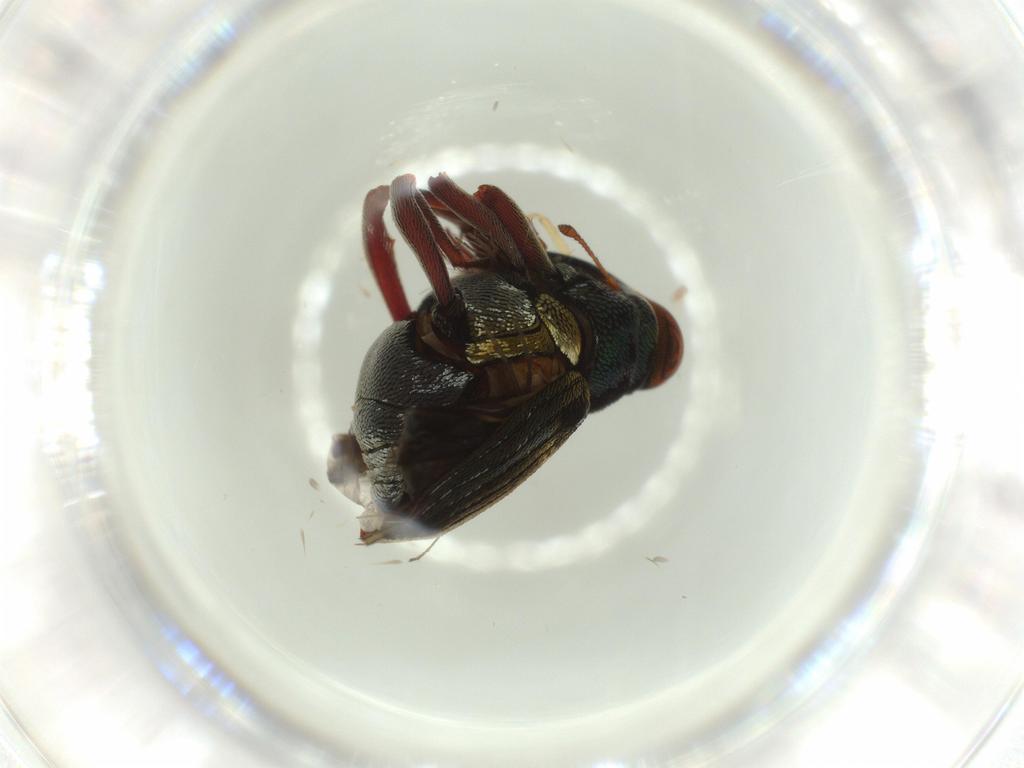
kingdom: Animalia
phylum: Arthropoda
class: Insecta
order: Coleoptera
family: Curculionidae
